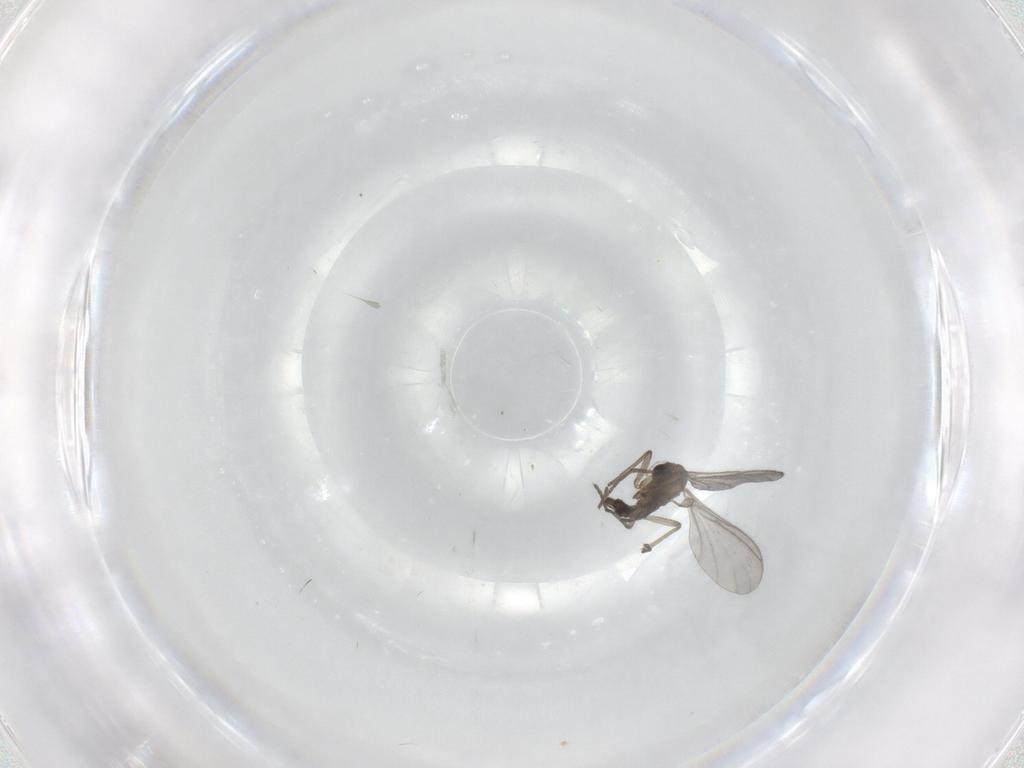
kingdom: Animalia
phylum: Arthropoda
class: Insecta
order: Diptera
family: Sciaridae
